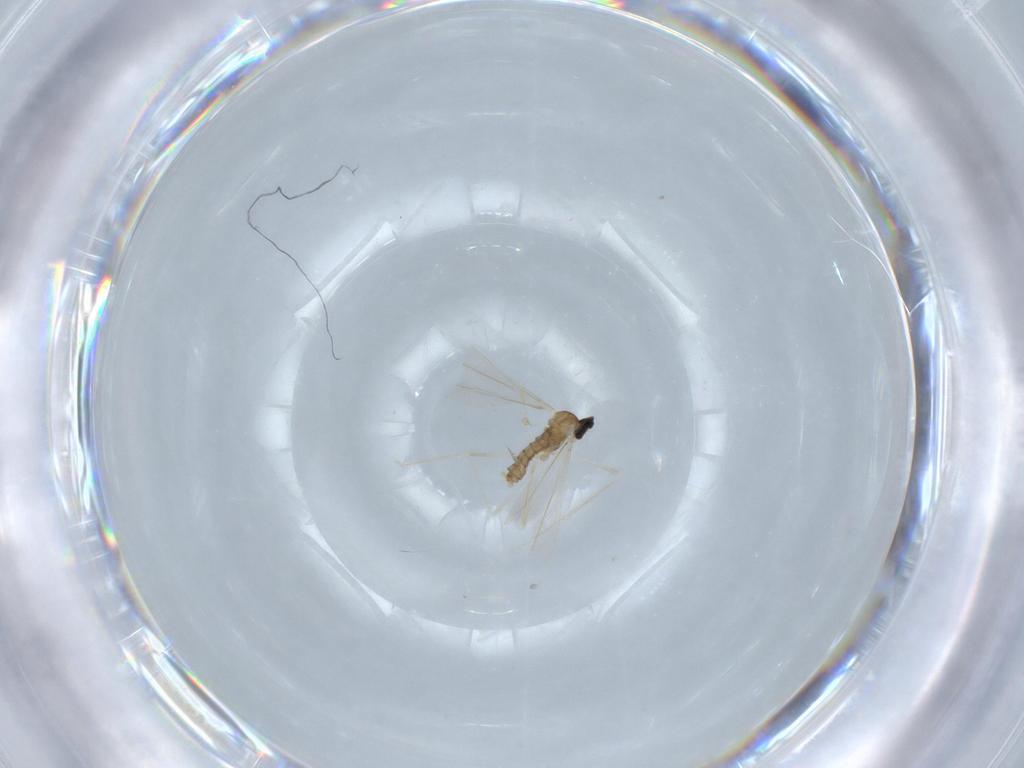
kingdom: Animalia
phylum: Arthropoda
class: Insecta
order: Diptera
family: Cecidomyiidae
